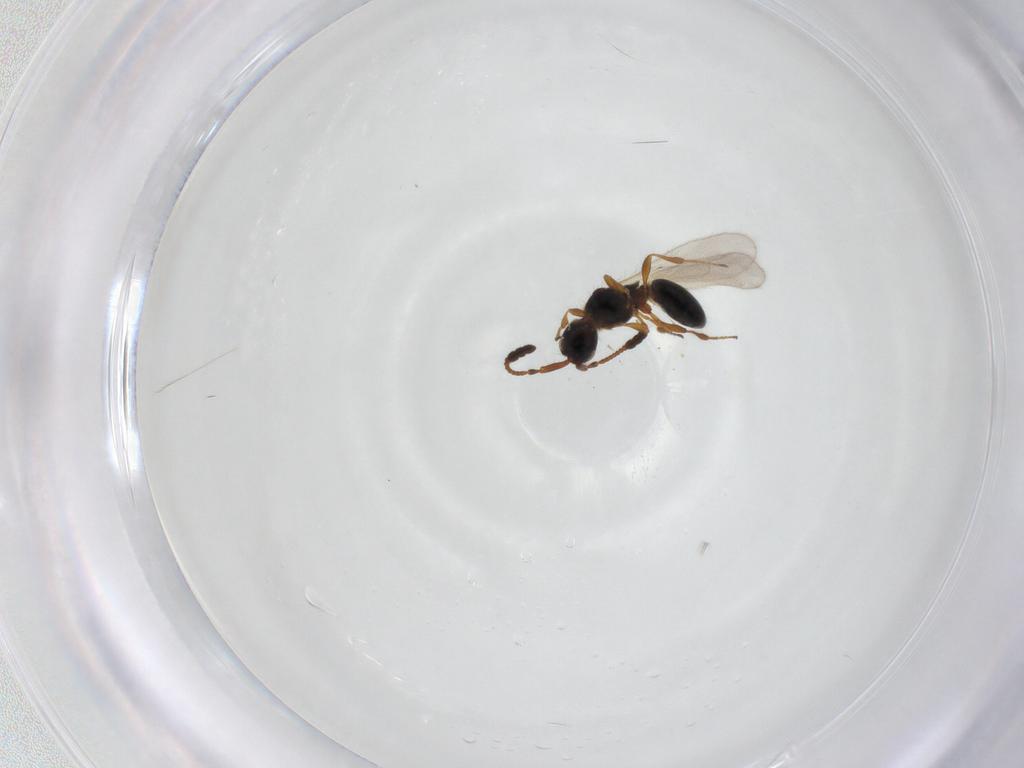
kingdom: Animalia
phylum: Arthropoda
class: Insecta
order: Hymenoptera
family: Diapriidae
